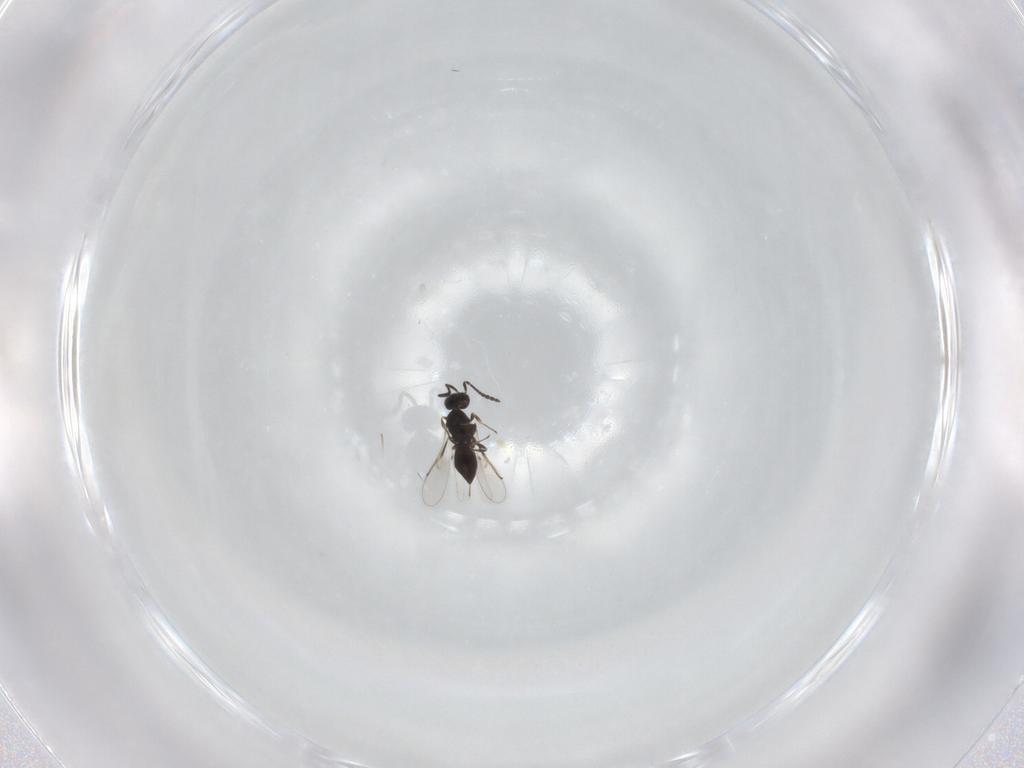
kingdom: Animalia
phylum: Arthropoda
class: Insecta
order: Hymenoptera
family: Scelionidae
